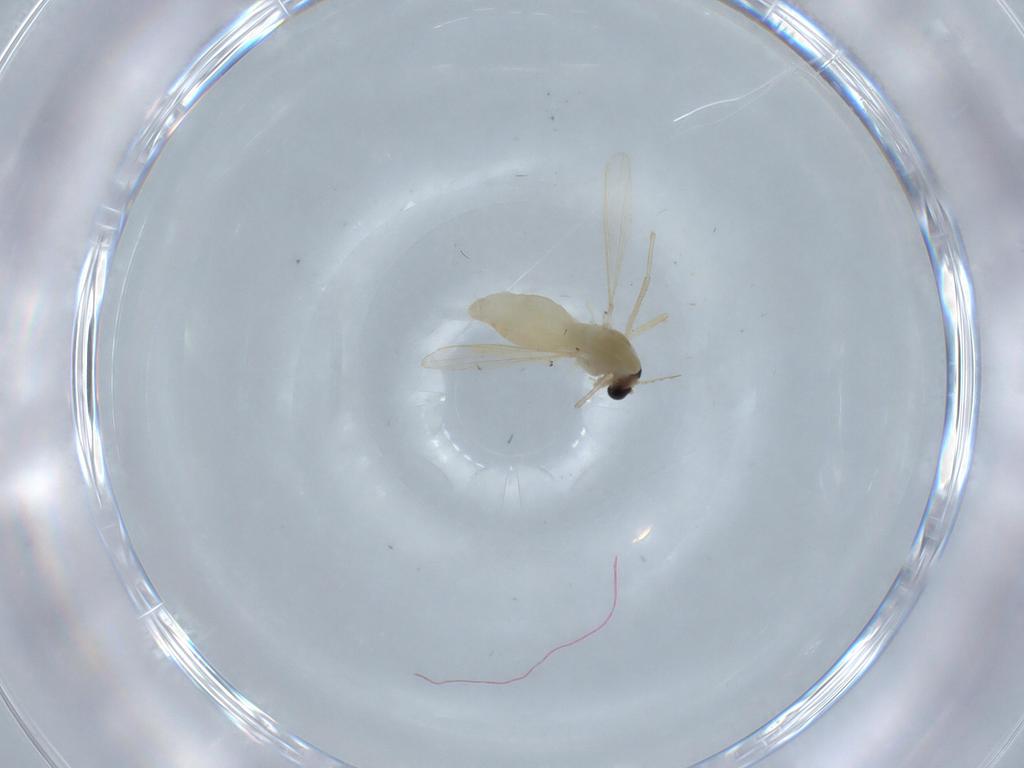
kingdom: Animalia
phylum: Arthropoda
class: Insecta
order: Diptera
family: Chironomidae
